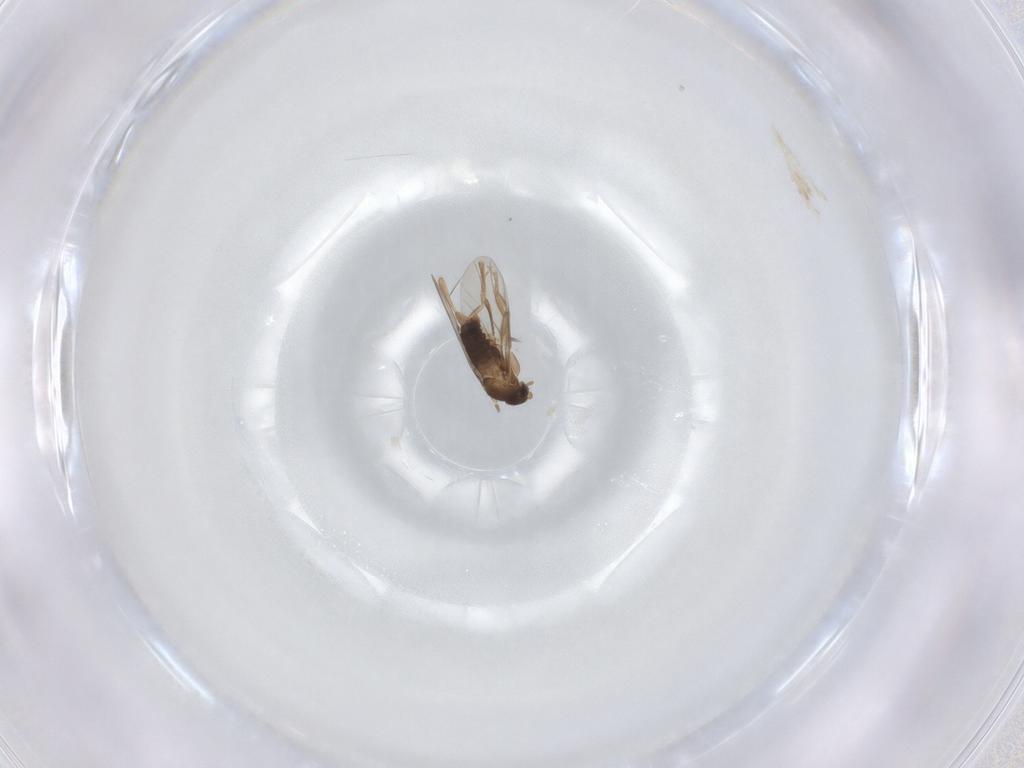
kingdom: Animalia
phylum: Arthropoda
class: Insecta
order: Diptera
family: Phoridae
